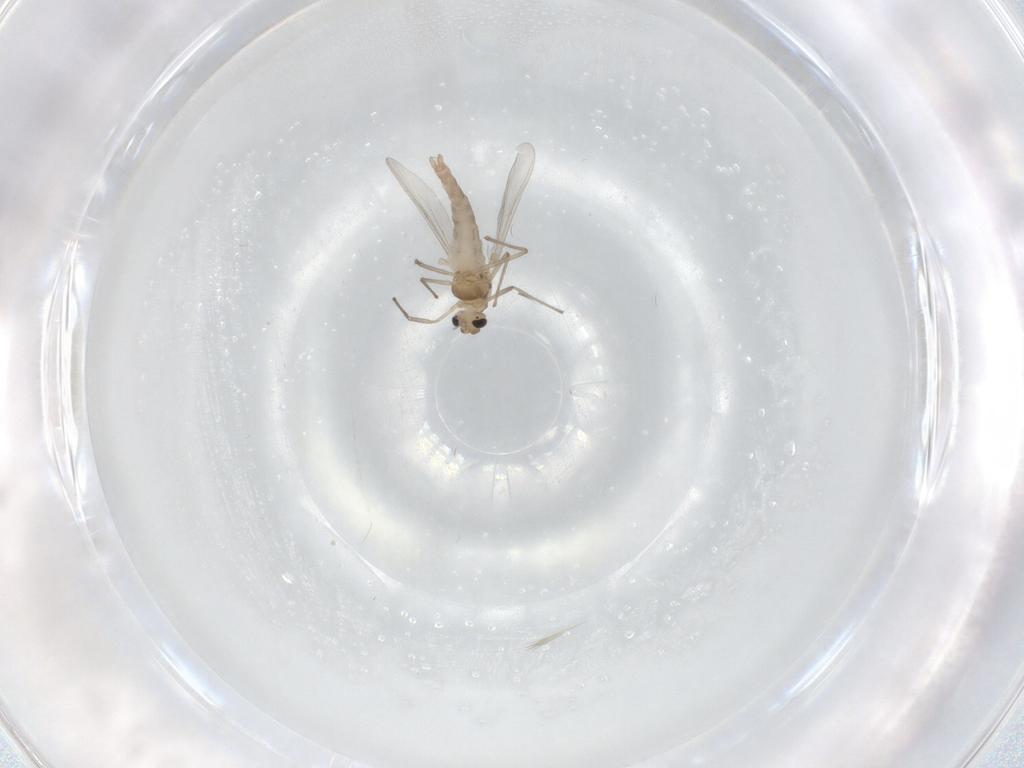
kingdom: Animalia
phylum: Arthropoda
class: Insecta
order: Diptera
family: Chironomidae
